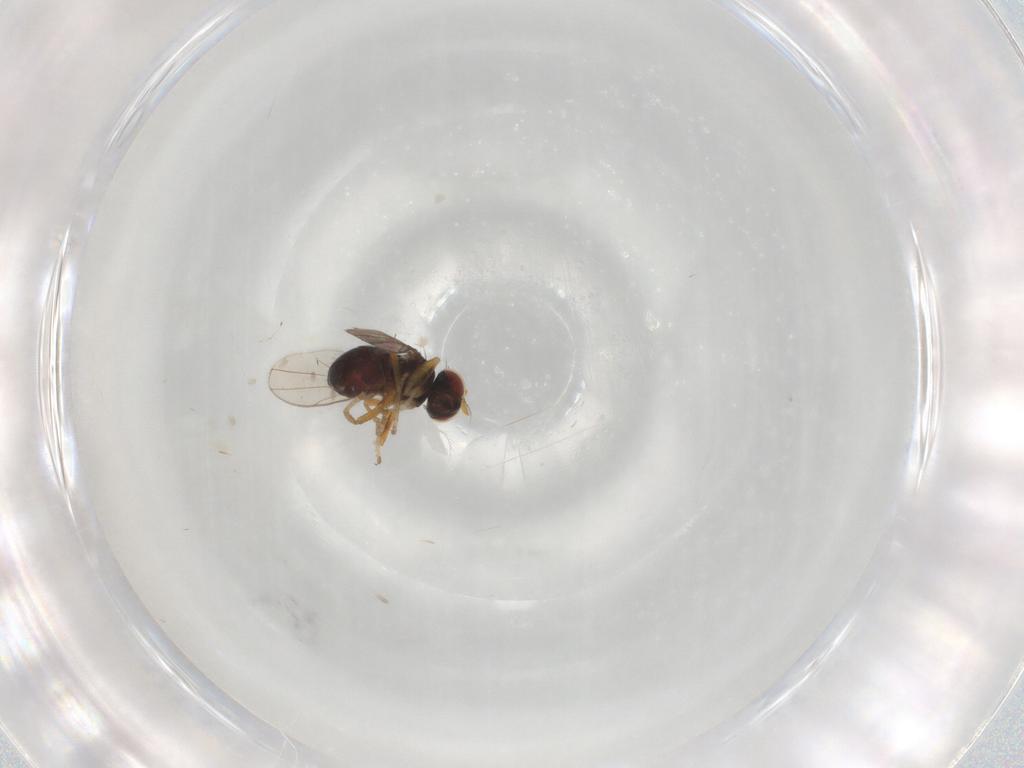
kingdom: Animalia
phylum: Arthropoda
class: Insecta
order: Diptera
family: Ephydridae
